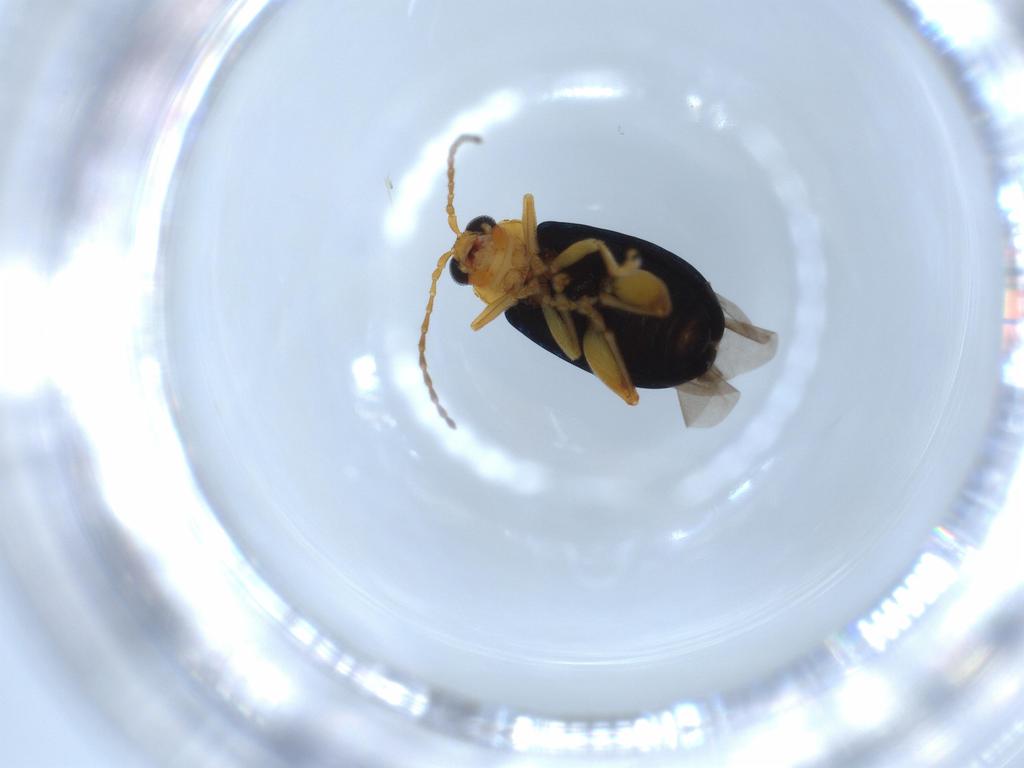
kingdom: Animalia
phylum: Arthropoda
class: Insecta
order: Coleoptera
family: Chrysomelidae
